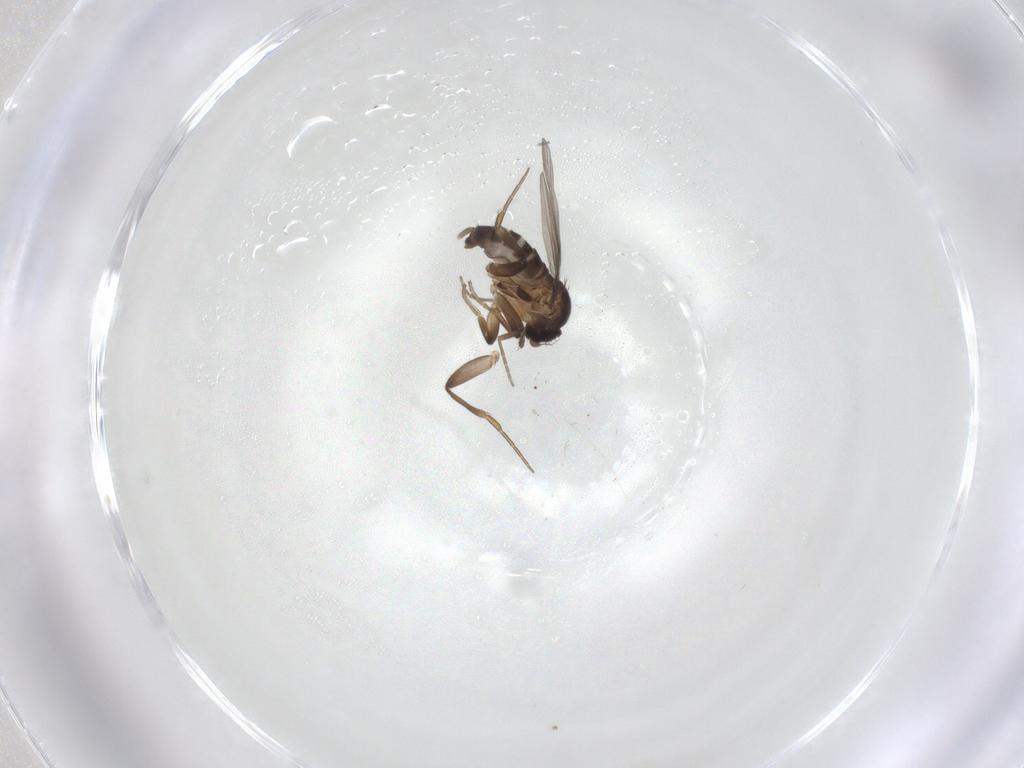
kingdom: Animalia
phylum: Arthropoda
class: Insecta
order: Diptera
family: Phoridae
